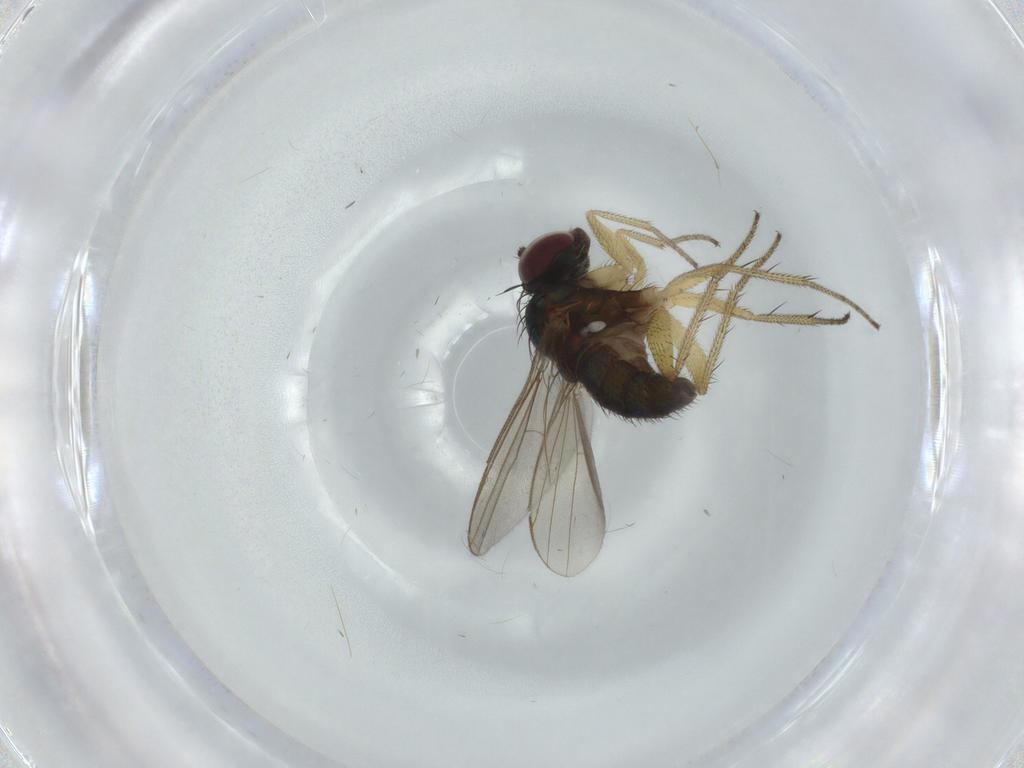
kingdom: Animalia
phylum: Arthropoda
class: Insecta
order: Diptera
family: Dolichopodidae
